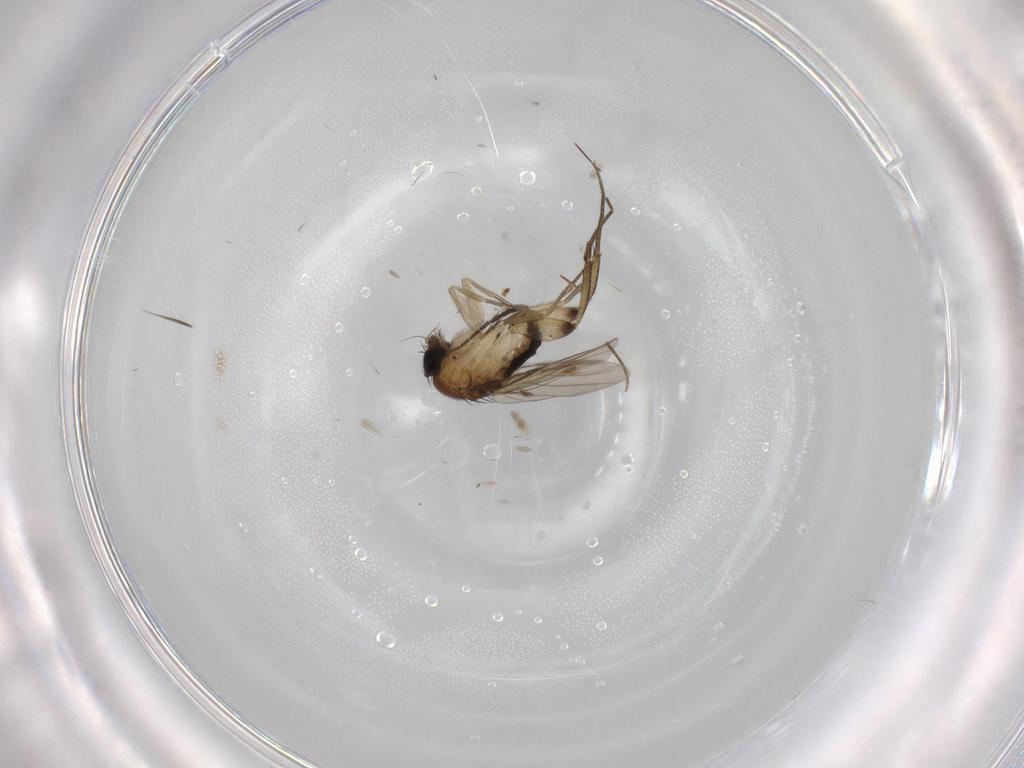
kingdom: Animalia
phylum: Arthropoda
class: Insecta
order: Diptera
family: Phoridae
